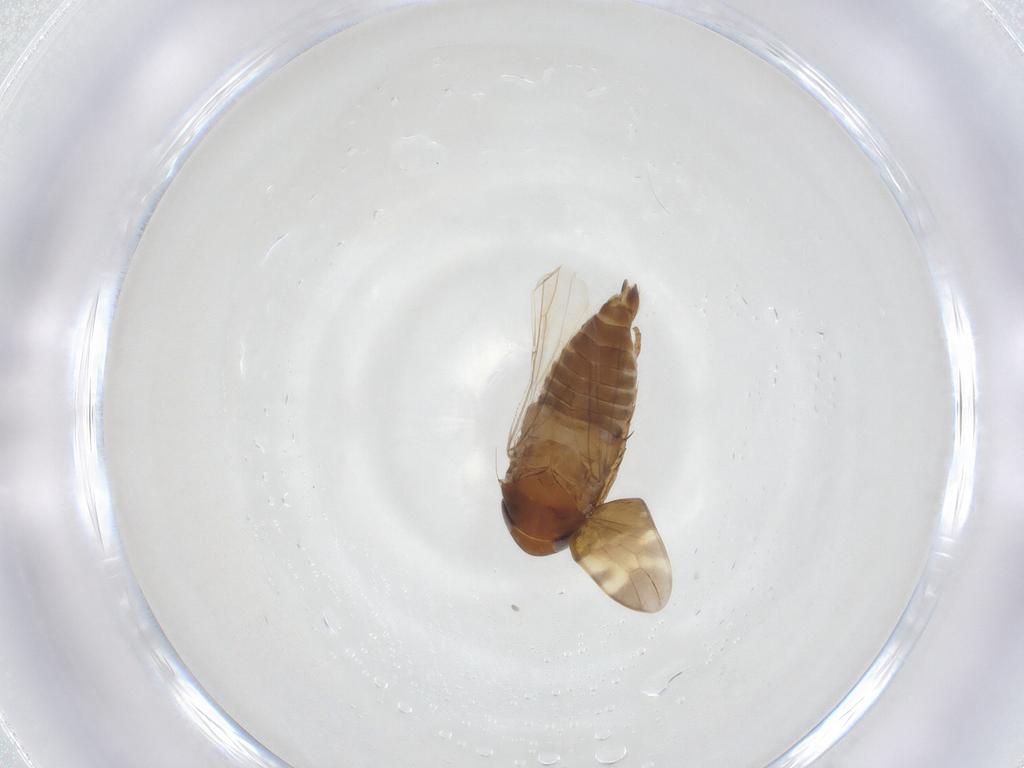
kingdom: Animalia
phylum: Arthropoda
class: Insecta
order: Hemiptera
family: Cicadellidae
